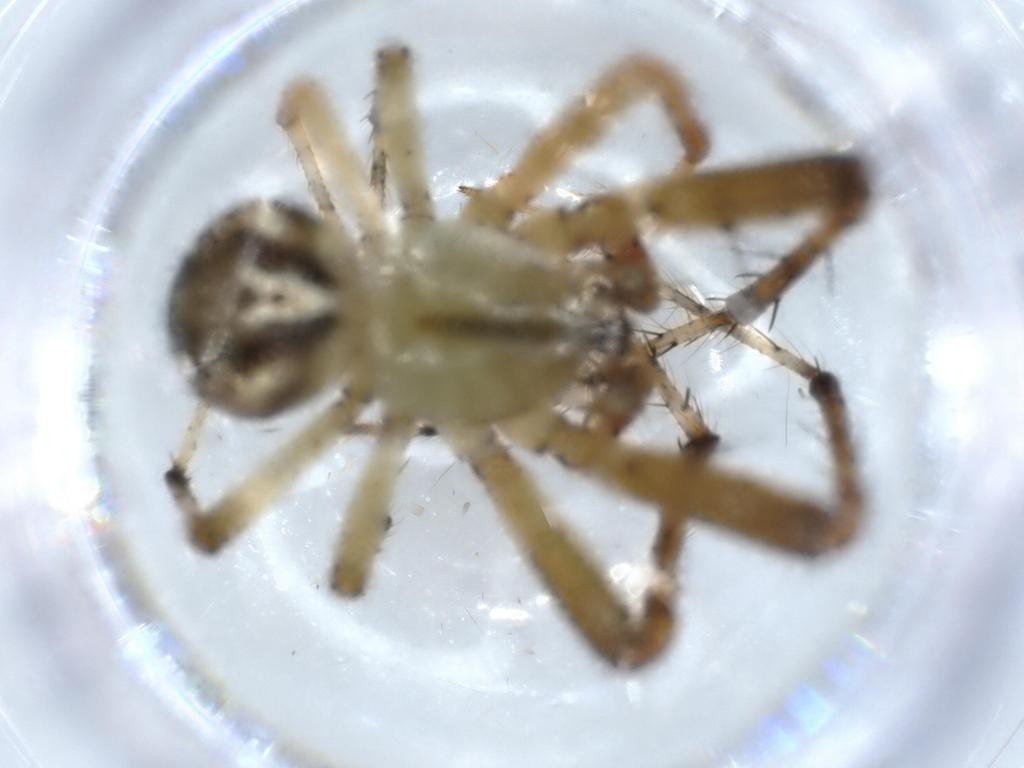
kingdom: Animalia
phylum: Arthropoda
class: Arachnida
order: Araneae
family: Araneidae
